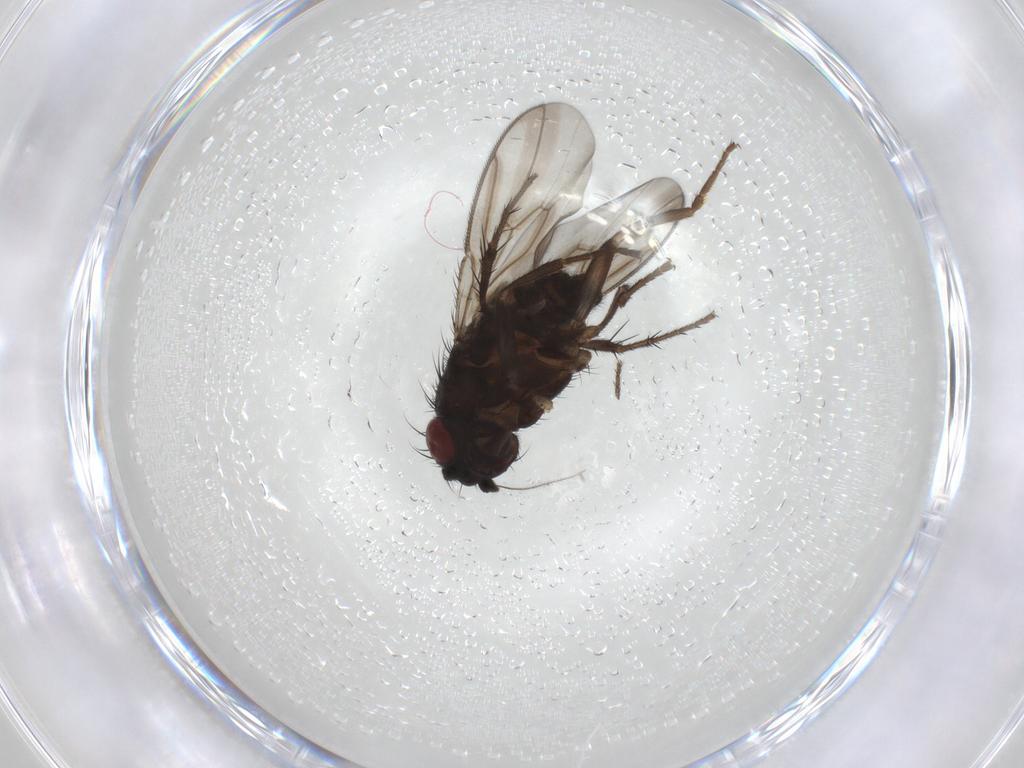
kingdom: Animalia
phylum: Arthropoda
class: Insecta
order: Diptera
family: Sphaeroceridae
